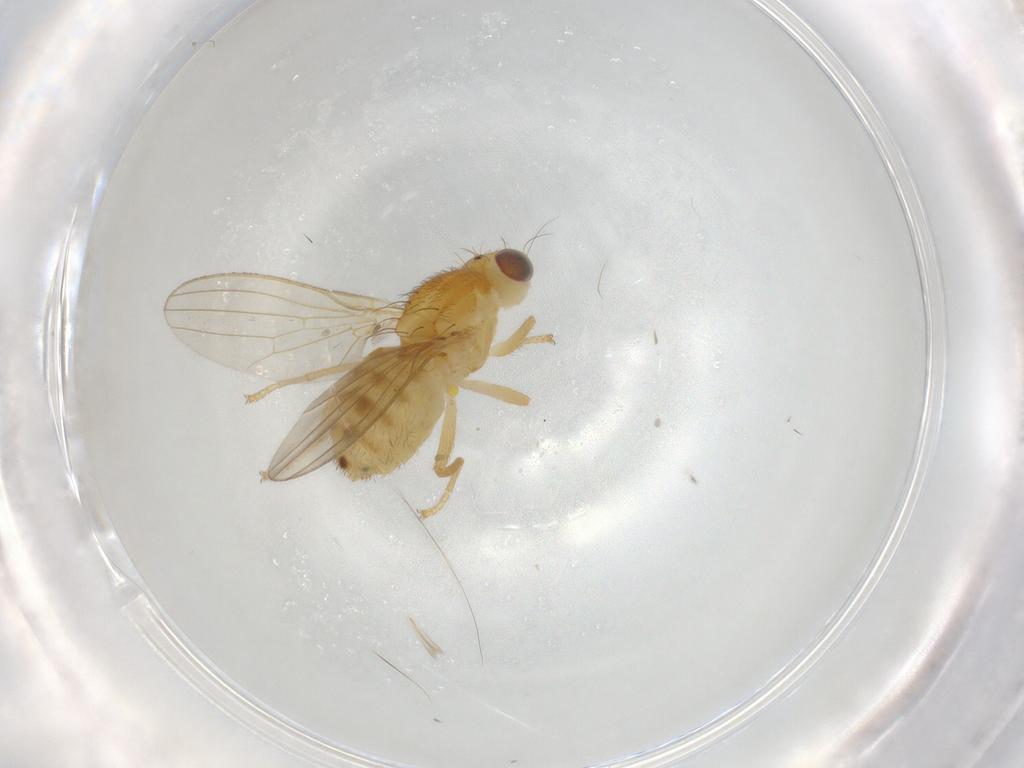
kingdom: Animalia
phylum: Arthropoda
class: Insecta
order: Diptera
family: Chyromyidae
